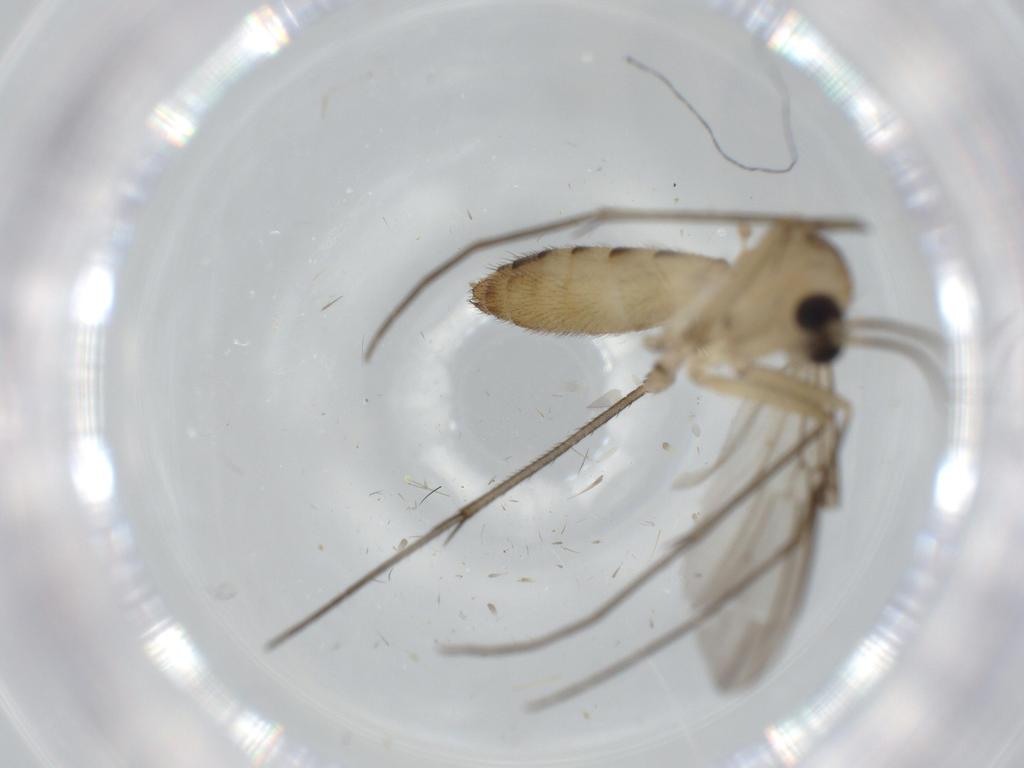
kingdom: Animalia
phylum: Arthropoda
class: Insecta
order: Diptera
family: Mycetophilidae
